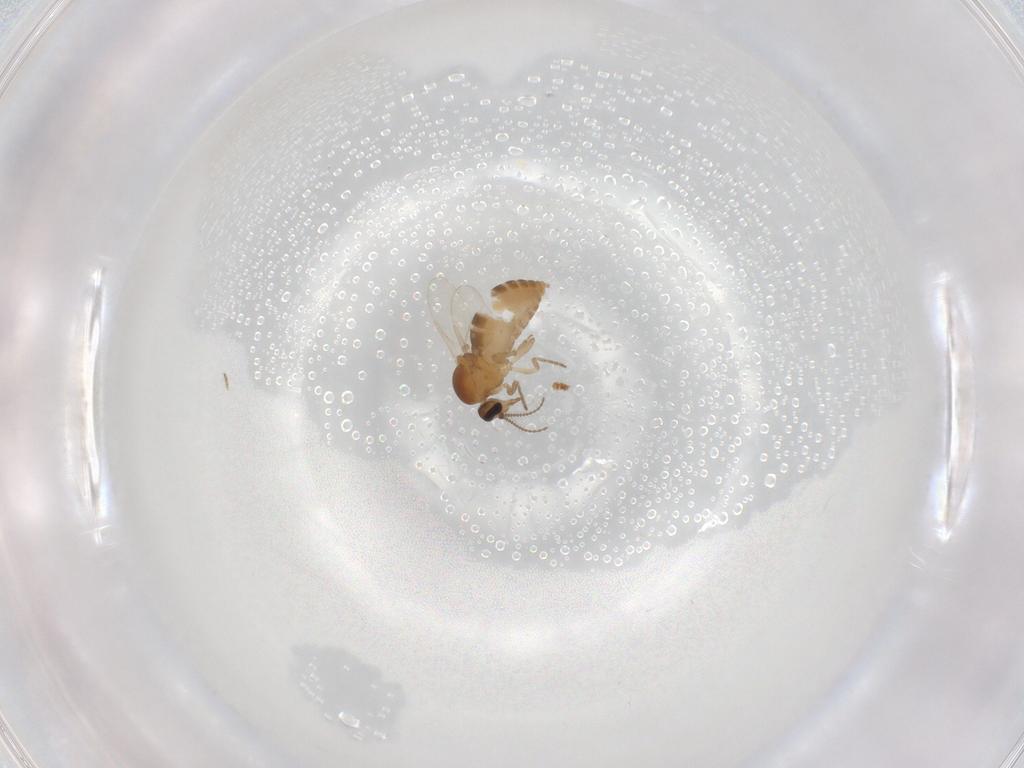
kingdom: Animalia
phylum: Arthropoda
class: Insecta
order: Diptera
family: Ceratopogonidae
